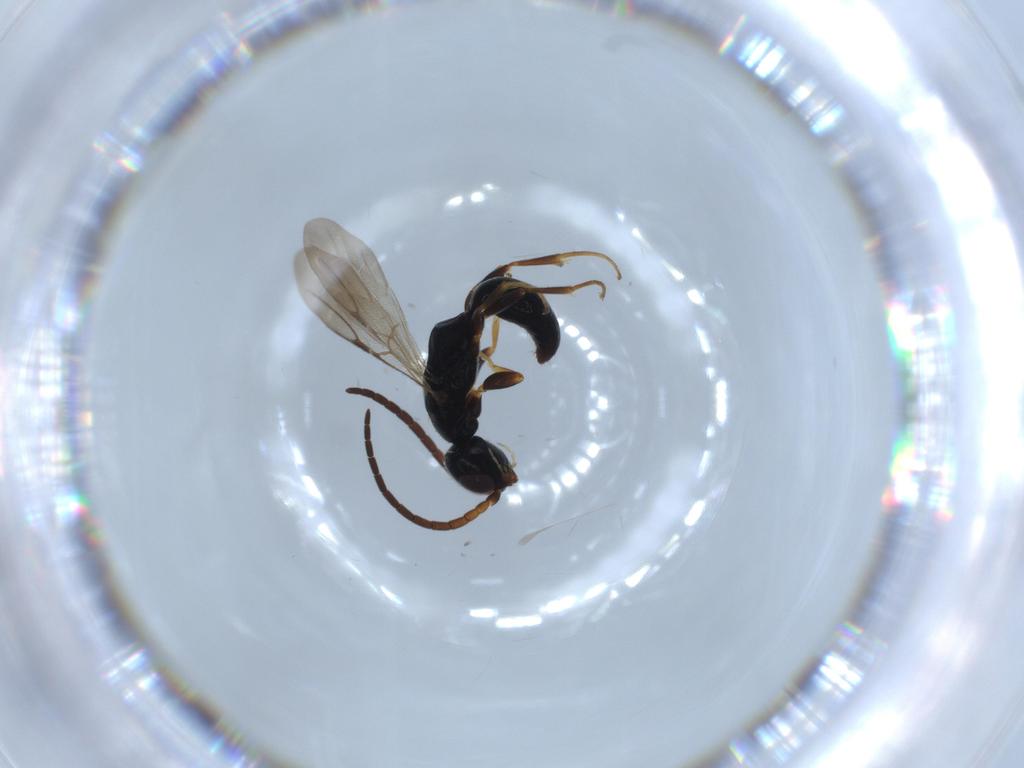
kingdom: Animalia
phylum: Arthropoda
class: Insecta
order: Hymenoptera
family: Bethylidae
